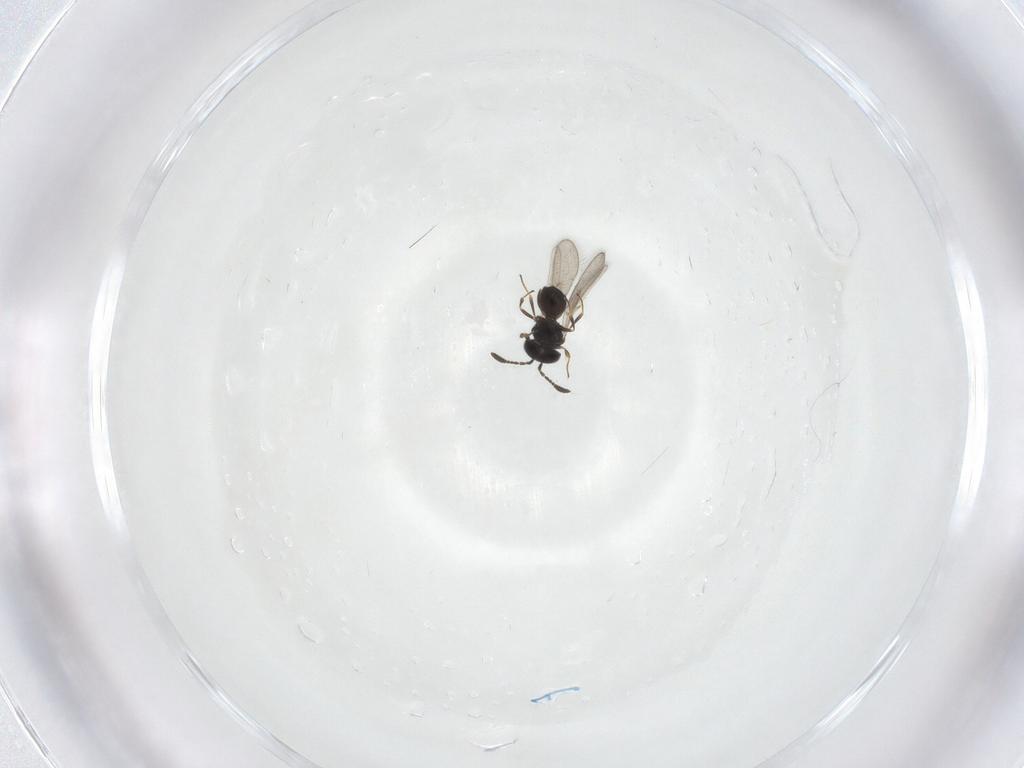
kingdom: Animalia
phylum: Arthropoda
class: Insecta
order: Hymenoptera
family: Scelionidae
